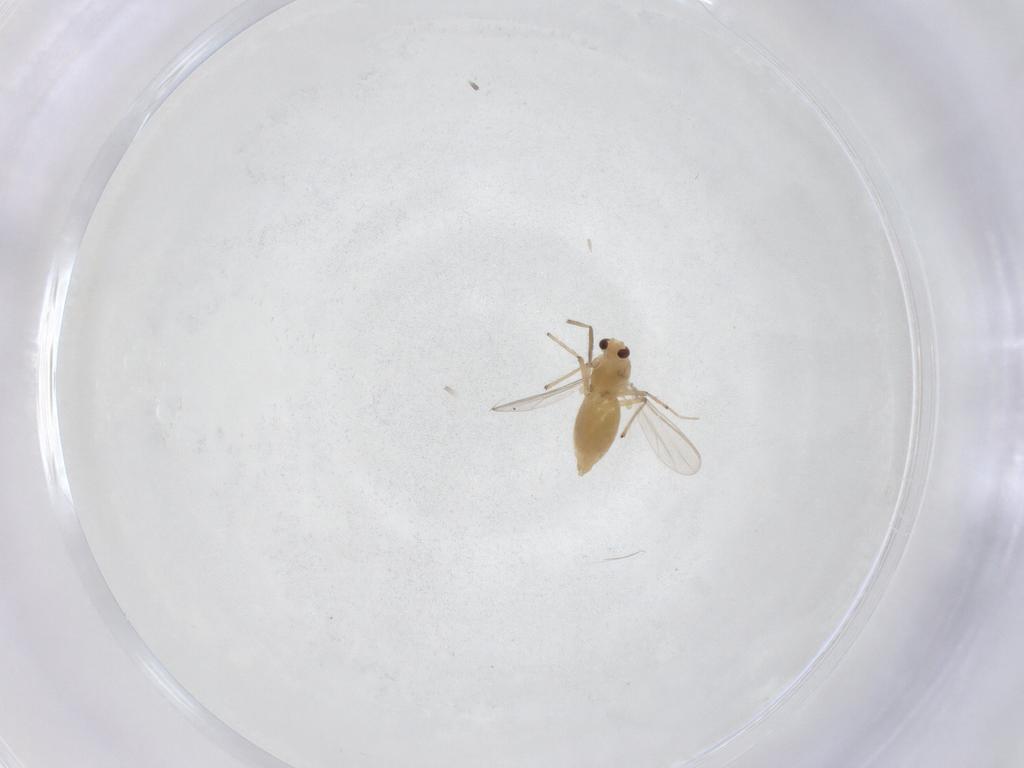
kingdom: Animalia
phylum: Arthropoda
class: Insecta
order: Diptera
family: Chironomidae
